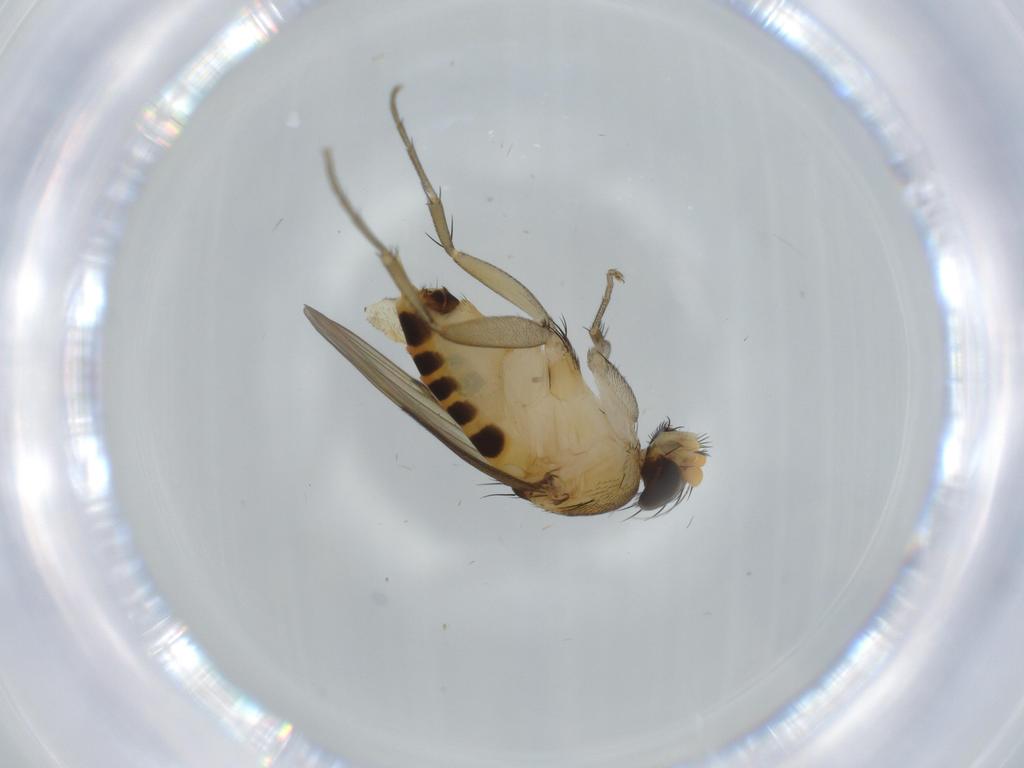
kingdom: Animalia
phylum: Arthropoda
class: Insecta
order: Diptera
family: Phoridae
